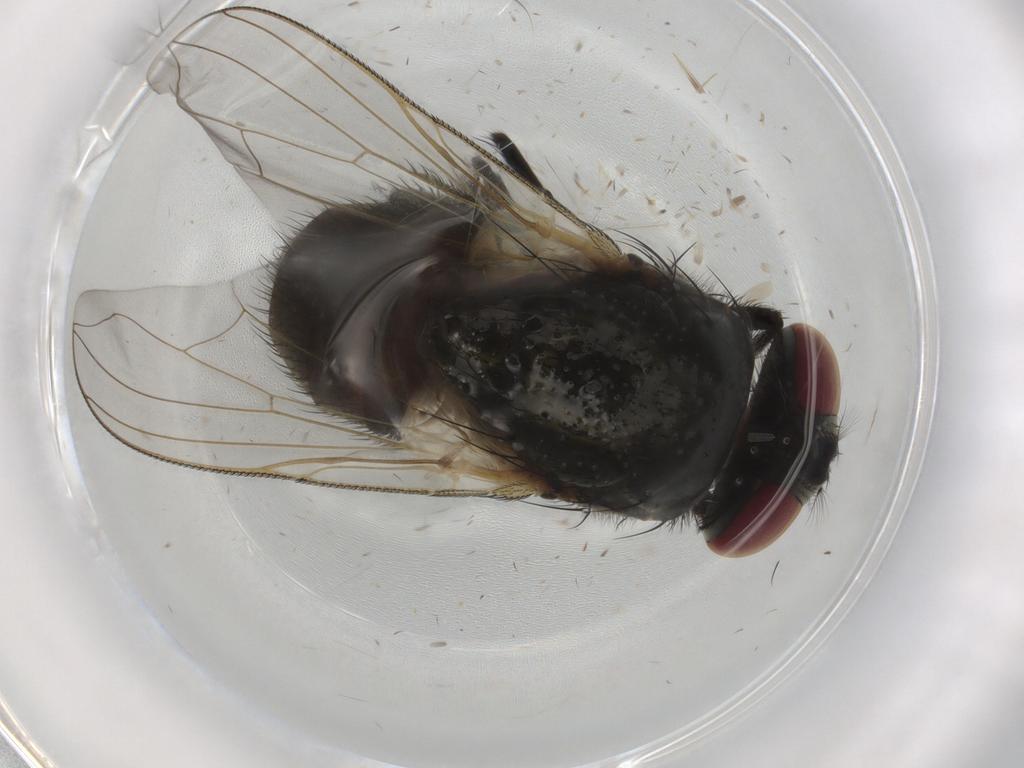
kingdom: Animalia
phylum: Arthropoda
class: Insecta
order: Diptera
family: Muscidae
